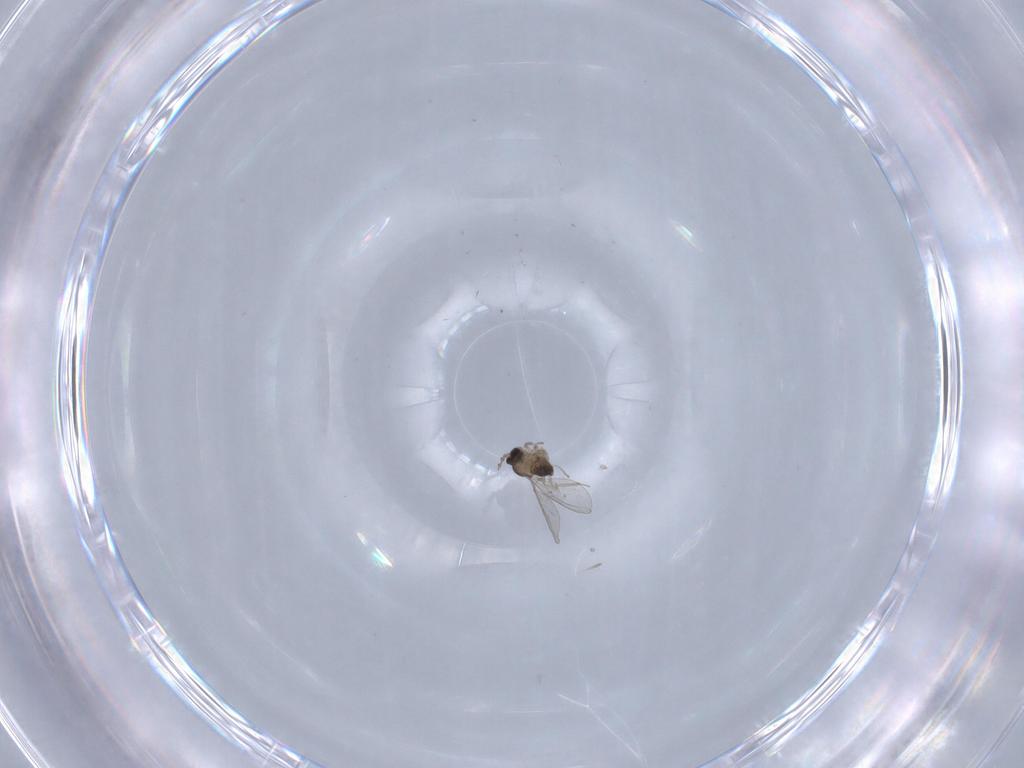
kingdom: Animalia
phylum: Arthropoda
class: Insecta
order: Diptera
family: Cecidomyiidae
